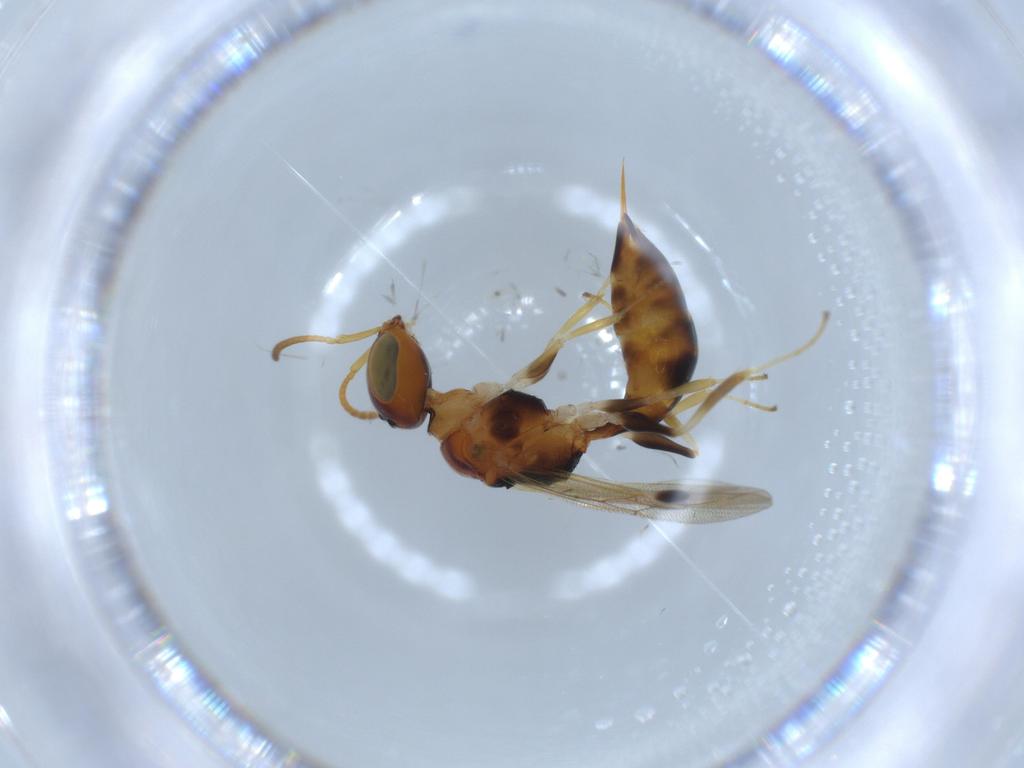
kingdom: Animalia
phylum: Arthropoda
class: Insecta
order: Hymenoptera
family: Pemphredonidae
